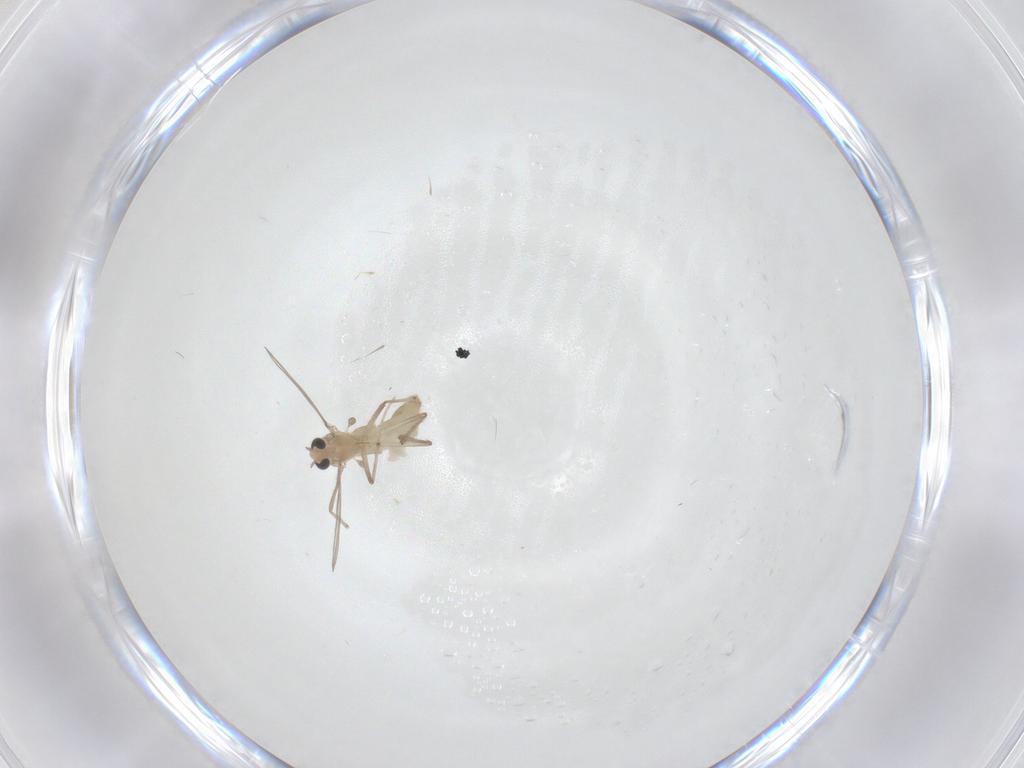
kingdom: Animalia
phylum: Arthropoda
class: Insecta
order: Diptera
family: Chironomidae
